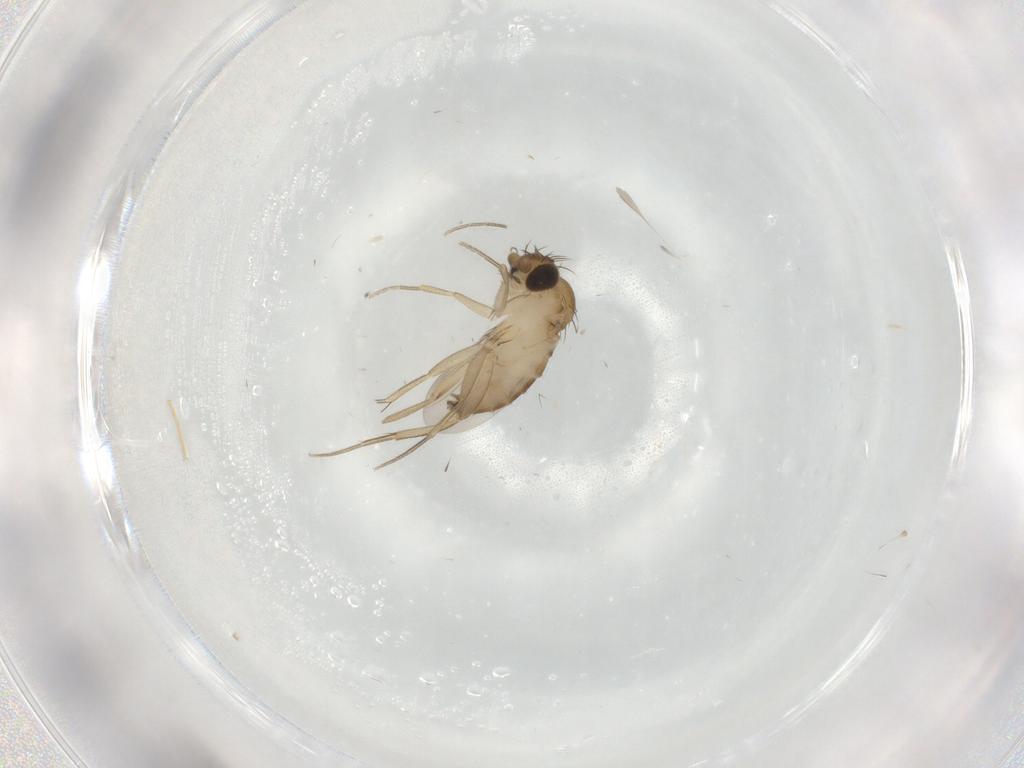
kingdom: Animalia
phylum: Arthropoda
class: Insecta
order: Diptera
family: Phoridae
